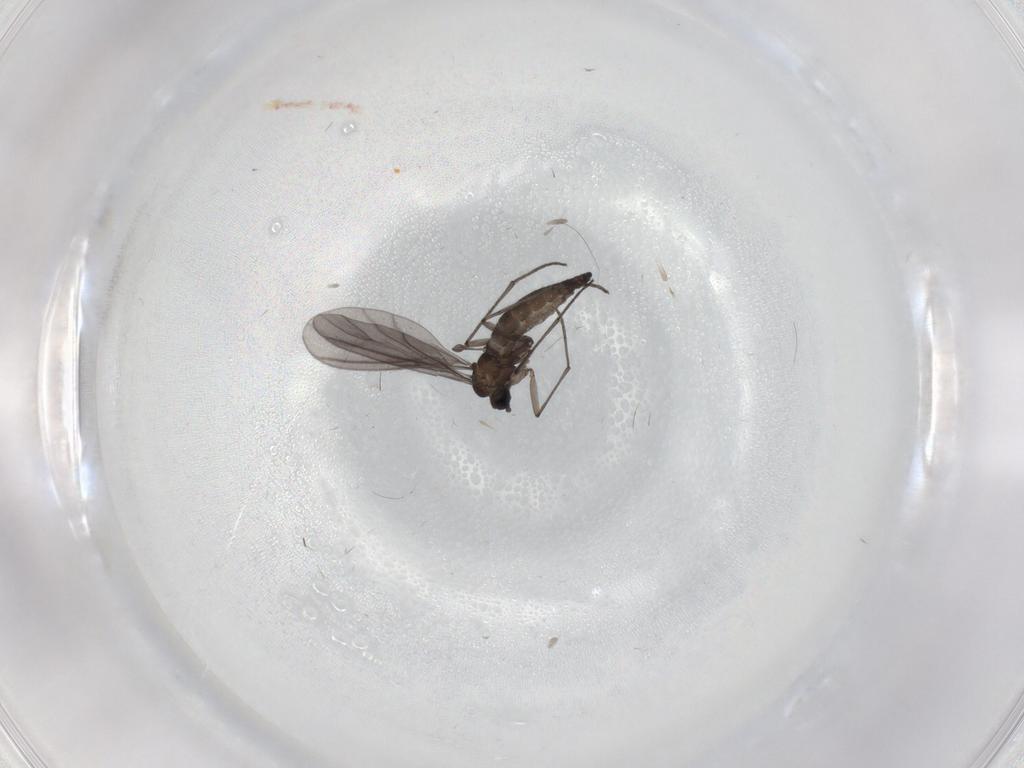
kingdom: Animalia
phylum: Arthropoda
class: Insecta
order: Diptera
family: Sciaridae
